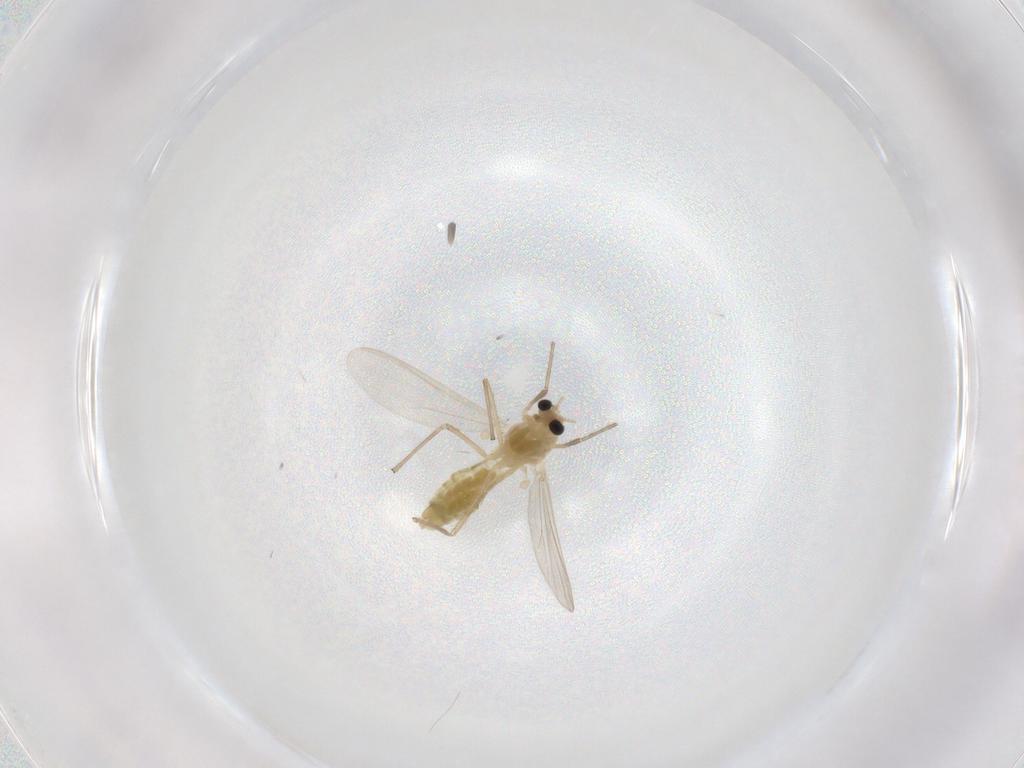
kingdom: Animalia
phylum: Arthropoda
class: Insecta
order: Diptera
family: Chironomidae
